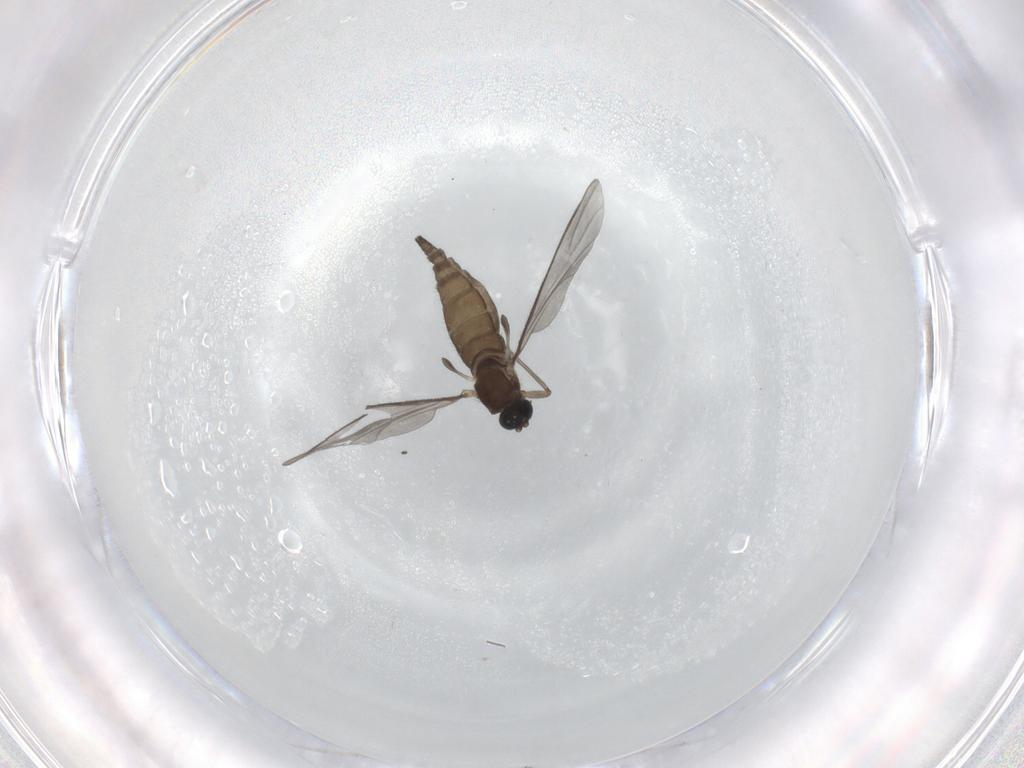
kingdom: Animalia
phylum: Arthropoda
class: Insecta
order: Diptera
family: Sciaridae
